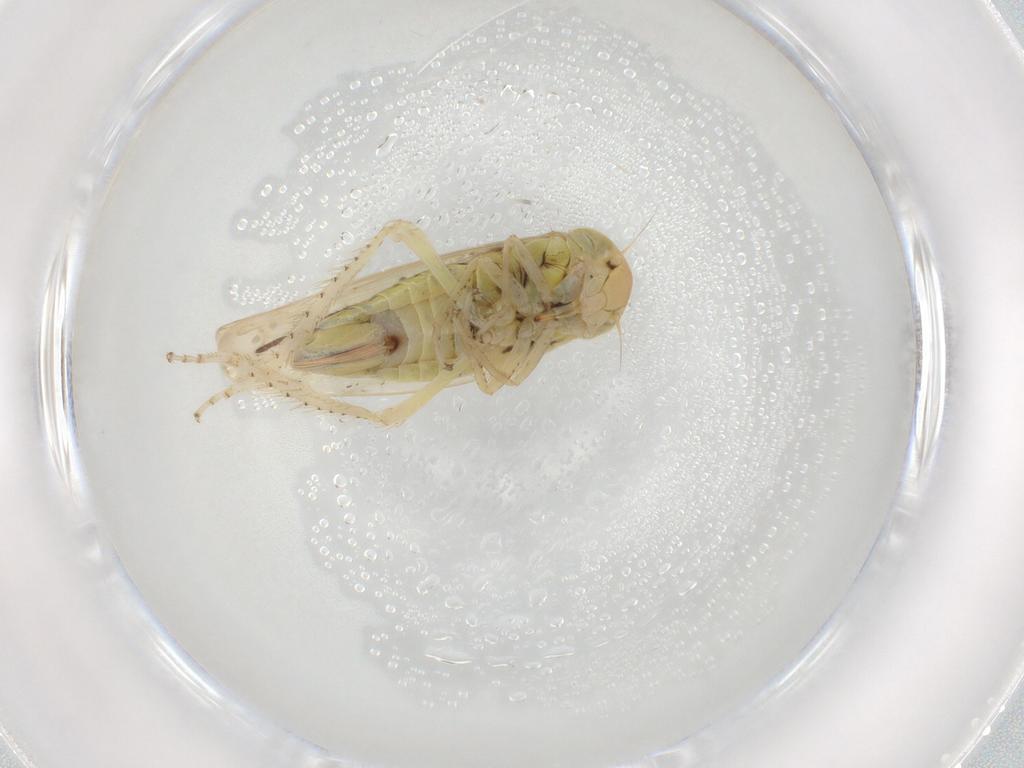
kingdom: Animalia
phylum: Arthropoda
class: Insecta
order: Hemiptera
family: Cicadellidae
